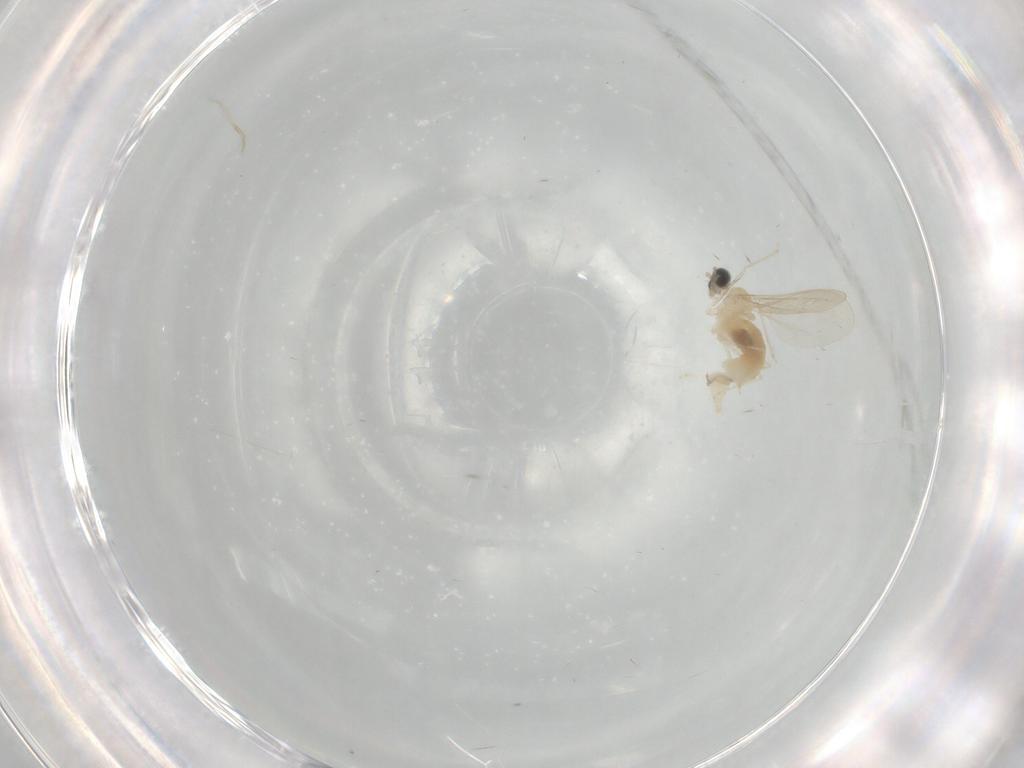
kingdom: Animalia
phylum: Arthropoda
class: Insecta
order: Diptera
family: Cecidomyiidae
